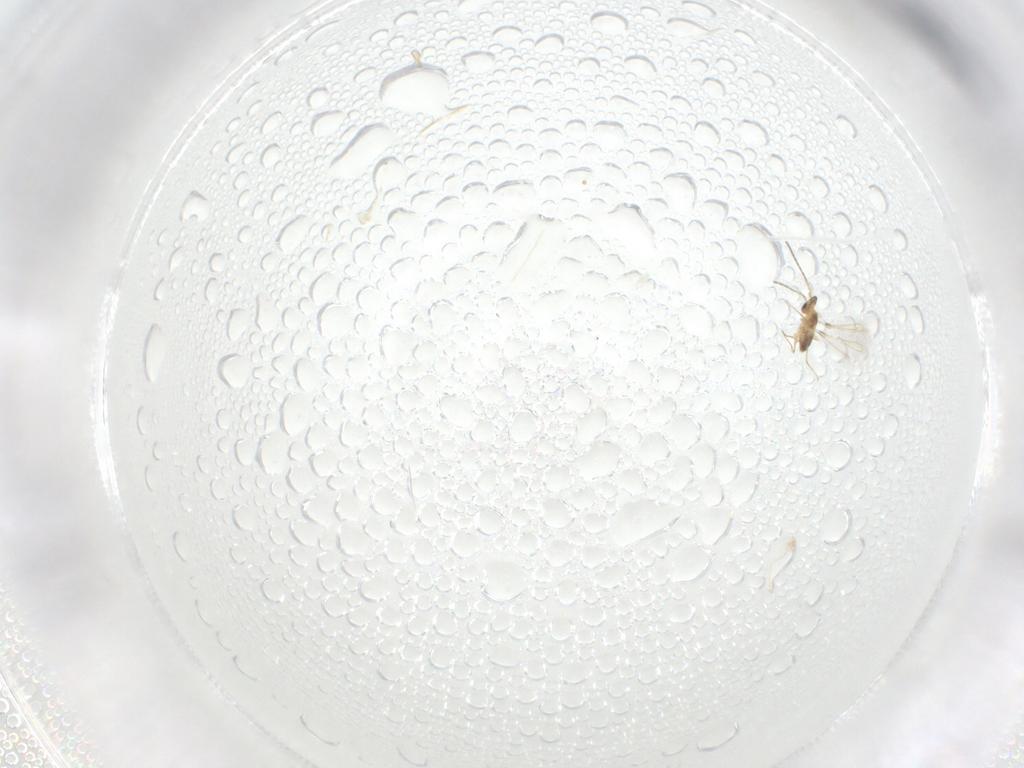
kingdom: Animalia
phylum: Arthropoda
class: Insecta
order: Hymenoptera
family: Mymaridae
